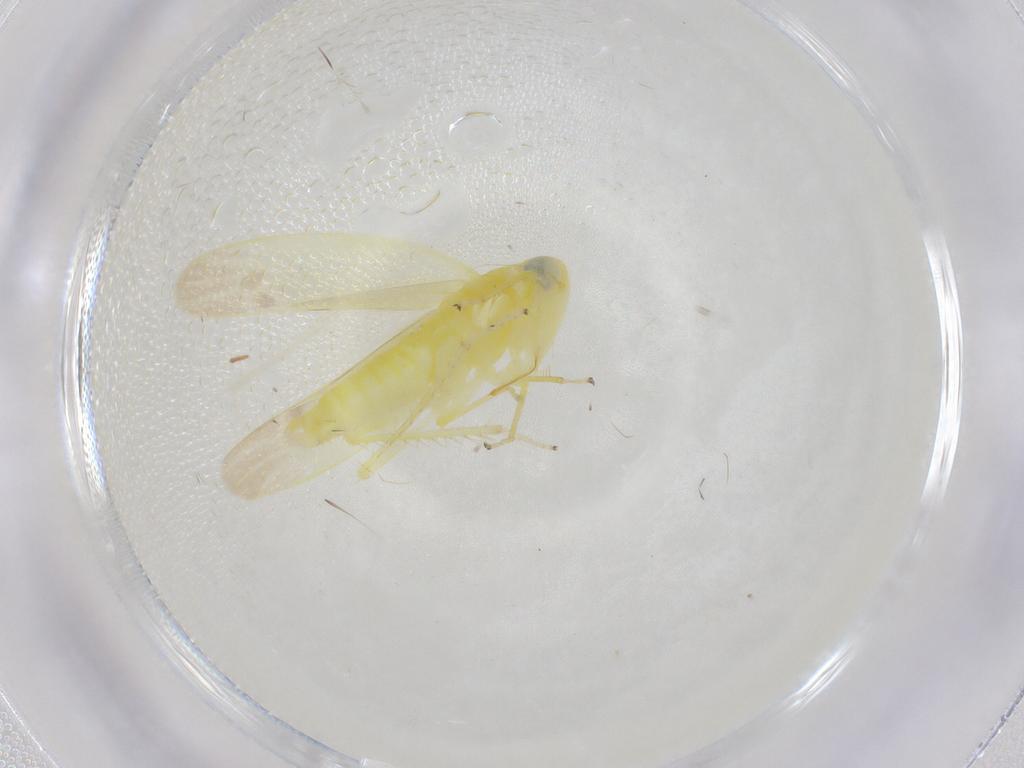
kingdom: Animalia
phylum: Arthropoda
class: Insecta
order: Hemiptera
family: Cicadellidae
